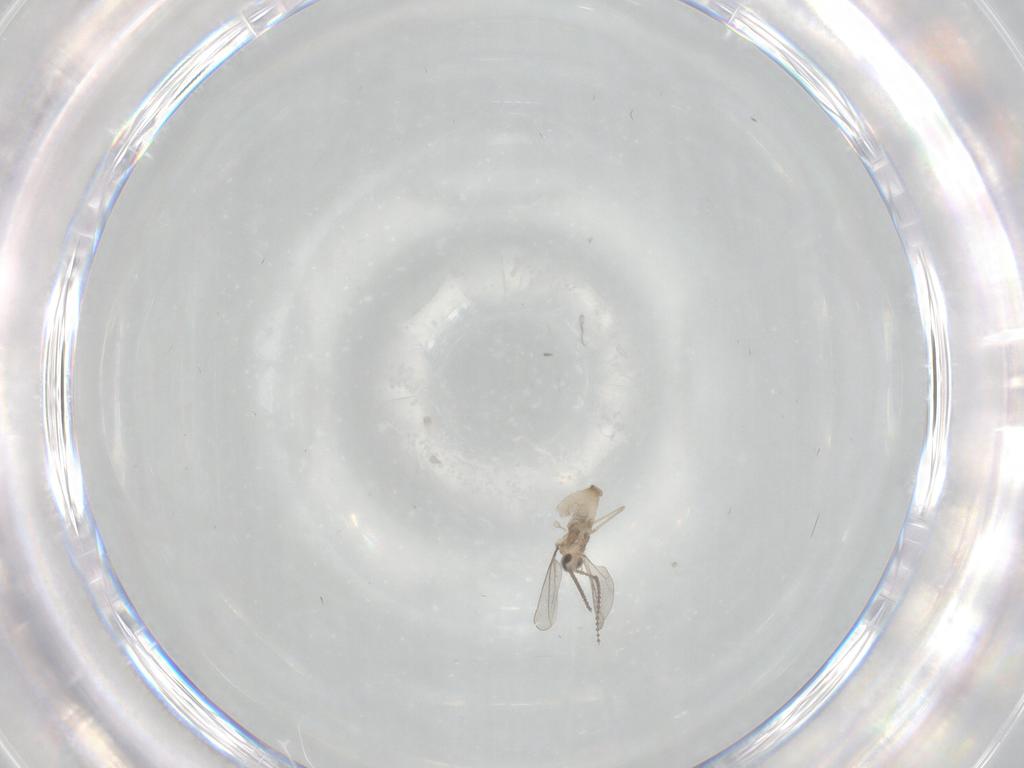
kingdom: Animalia
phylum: Arthropoda
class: Insecta
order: Diptera
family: Cecidomyiidae
